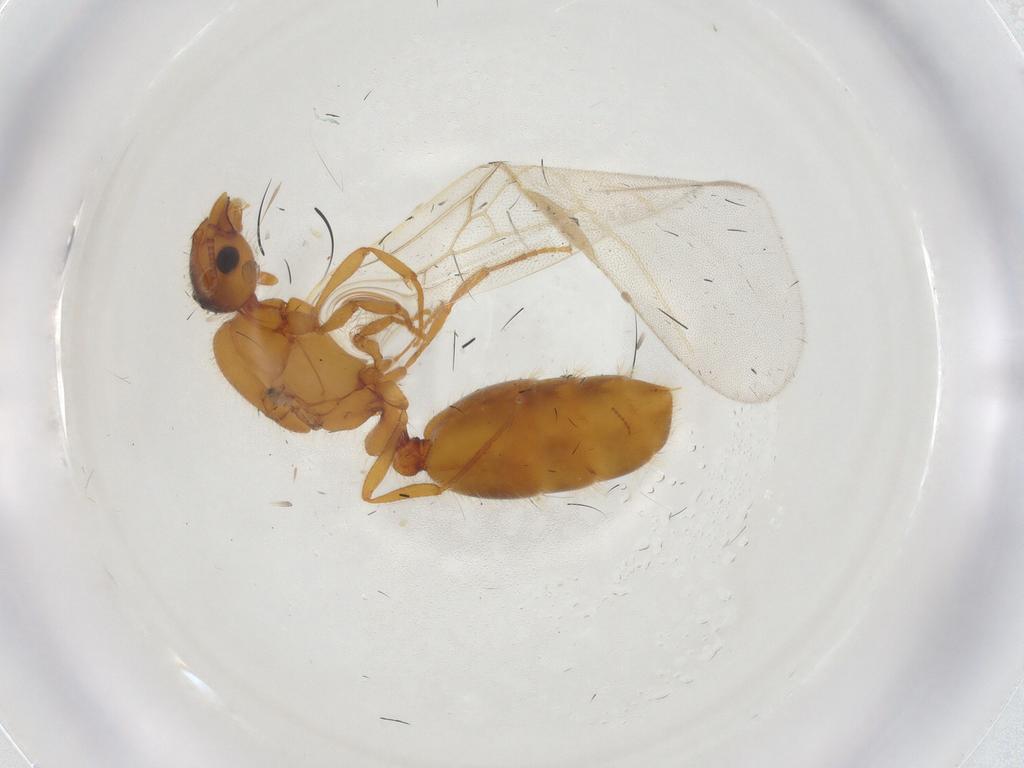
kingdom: Animalia
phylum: Arthropoda
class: Insecta
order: Hymenoptera
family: Formicidae
